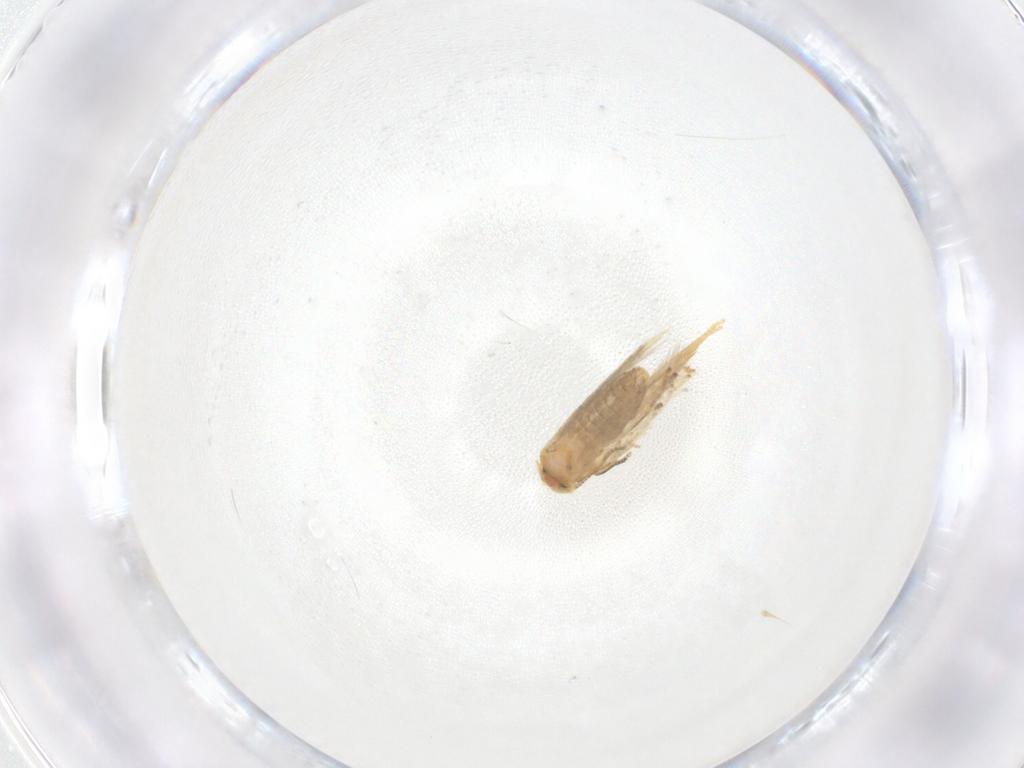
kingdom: Animalia
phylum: Arthropoda
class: Insecta
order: Lepidoptera
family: Nepticulidae
